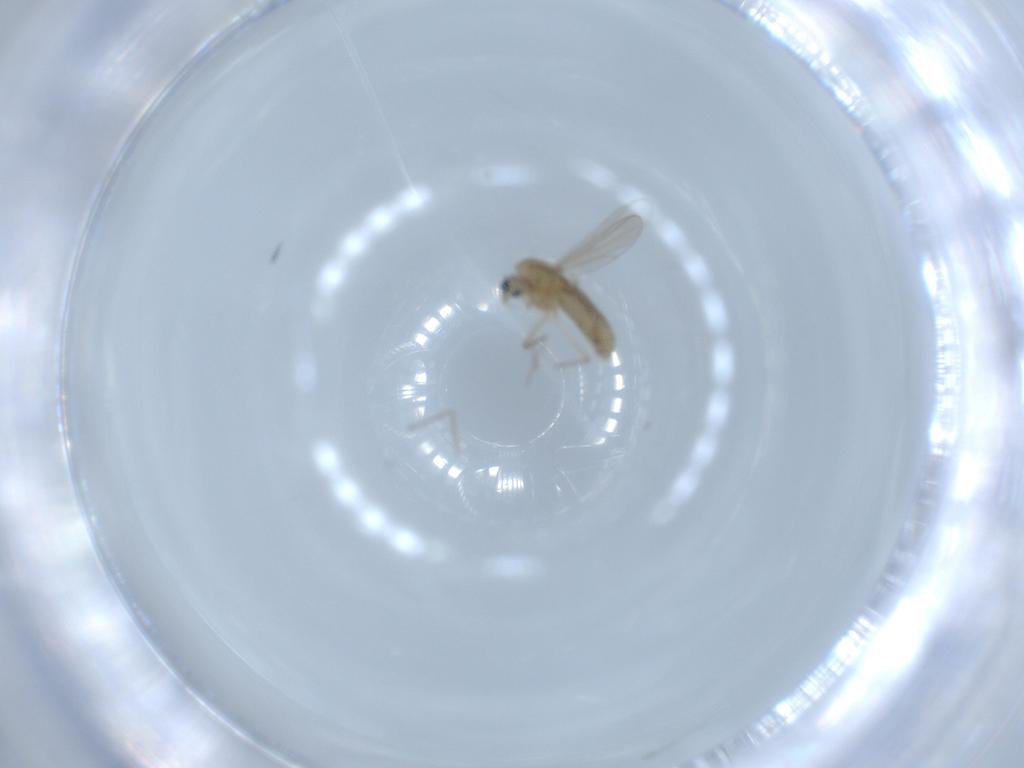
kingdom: Animalia
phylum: Arthropoda
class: Insecta
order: Diptera
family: Chironomidae
